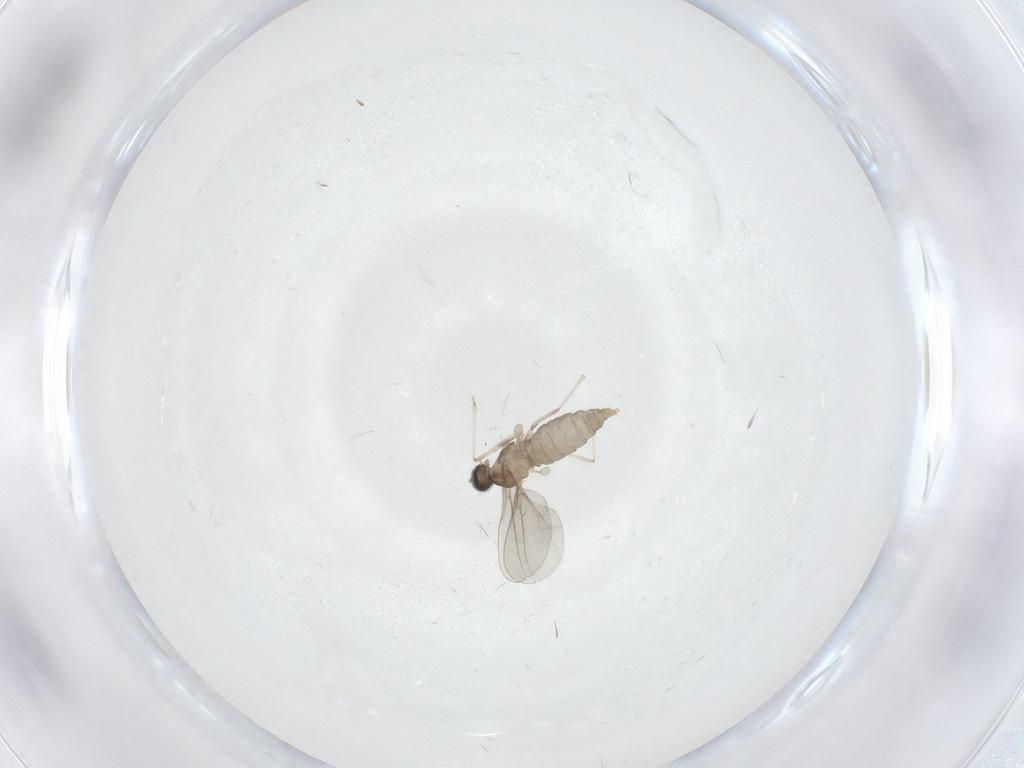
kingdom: Animalia
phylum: Arthropoda
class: Insecta
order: Diptera
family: Cecidomyiidae
